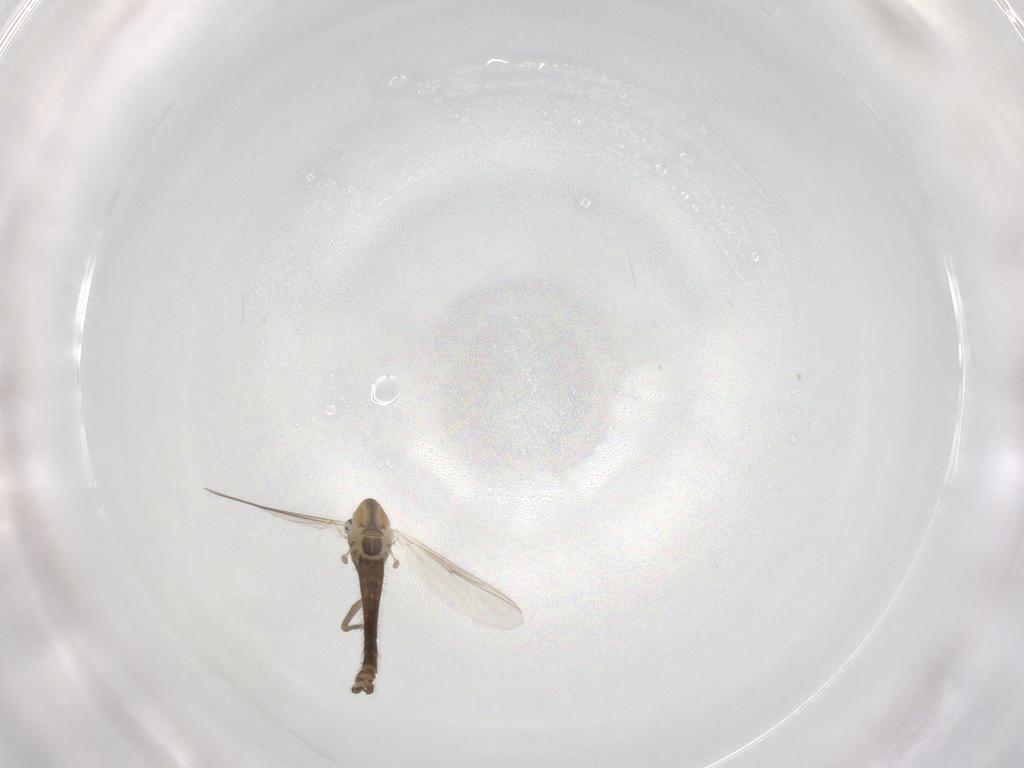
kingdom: Animalia
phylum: Arthropoda
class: Insecta
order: Diptera
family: Chironomidae
